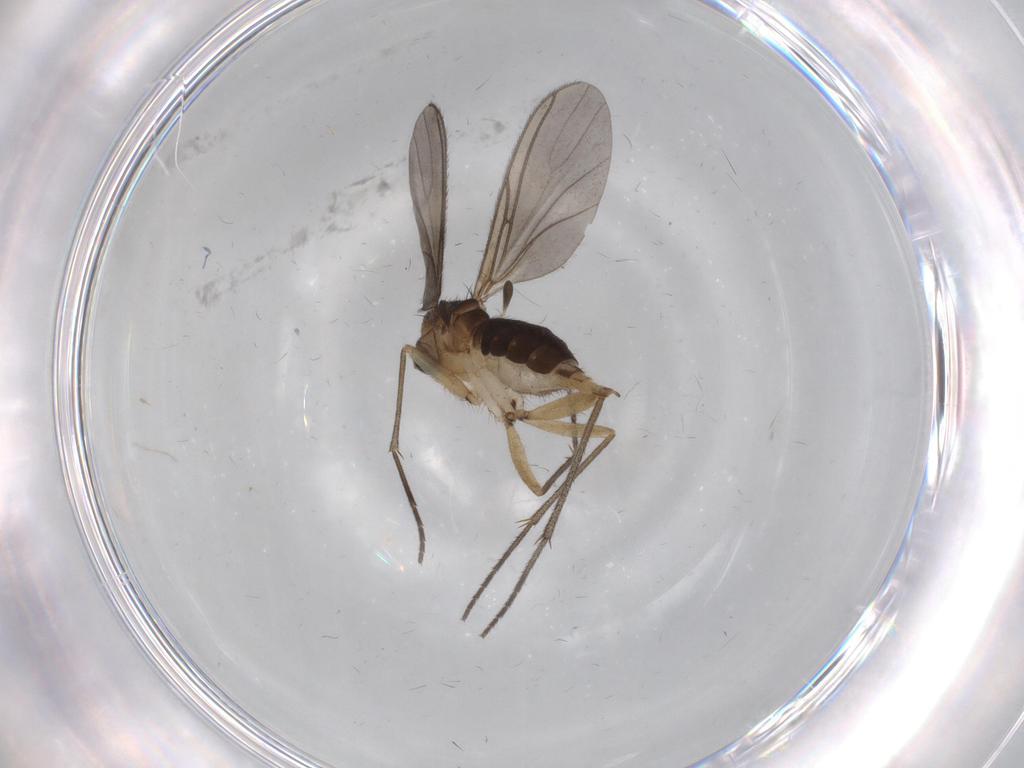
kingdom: Animalia
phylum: Arthropoda
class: Insecta
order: Diptera
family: Sciaridae
